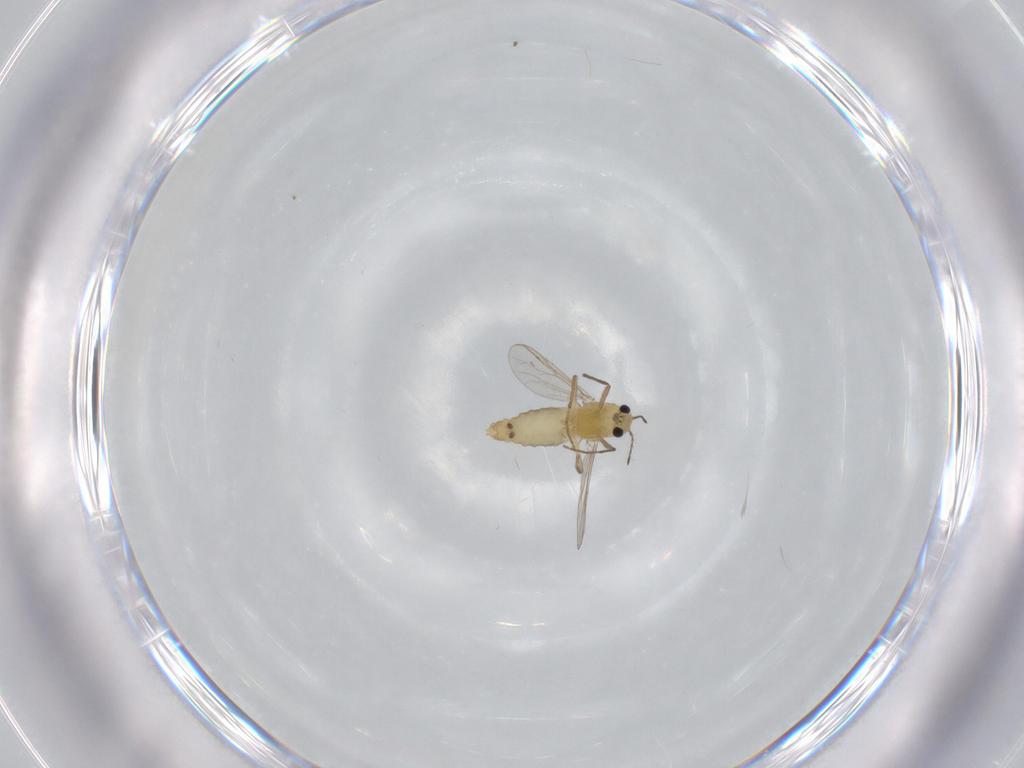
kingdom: Animalia
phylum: Arthropoda
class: Insecta
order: Diptera
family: Chironomidae
